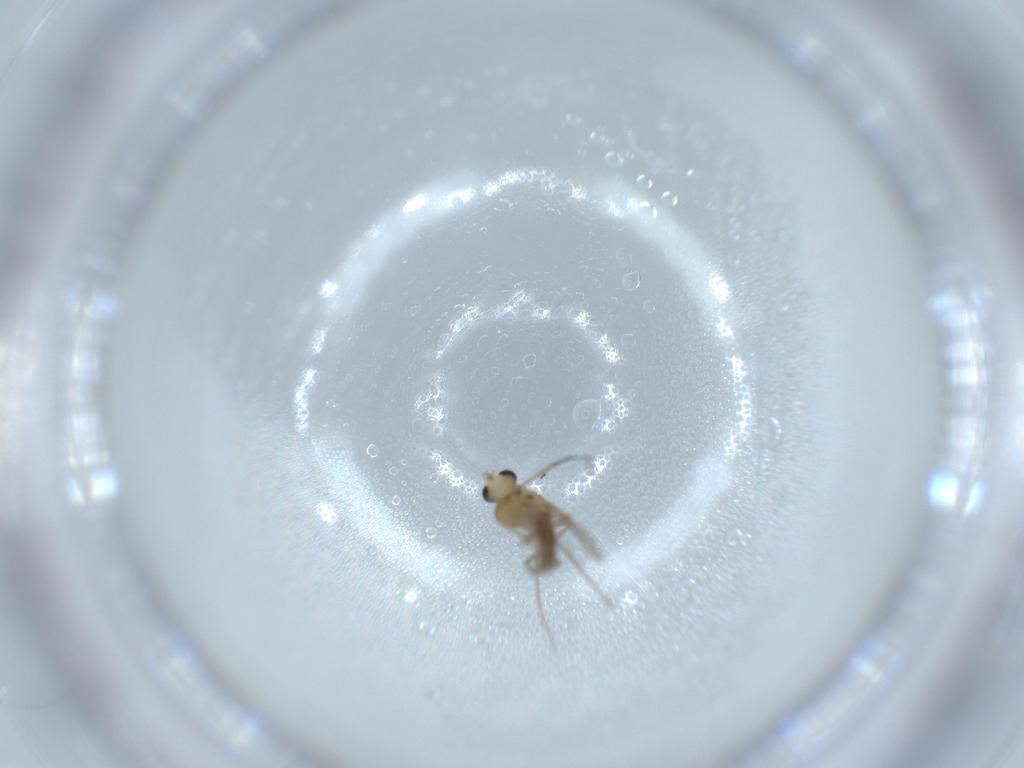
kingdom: Animalia
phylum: Arthropoda
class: Insecta
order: Diptera
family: Chironomidae
